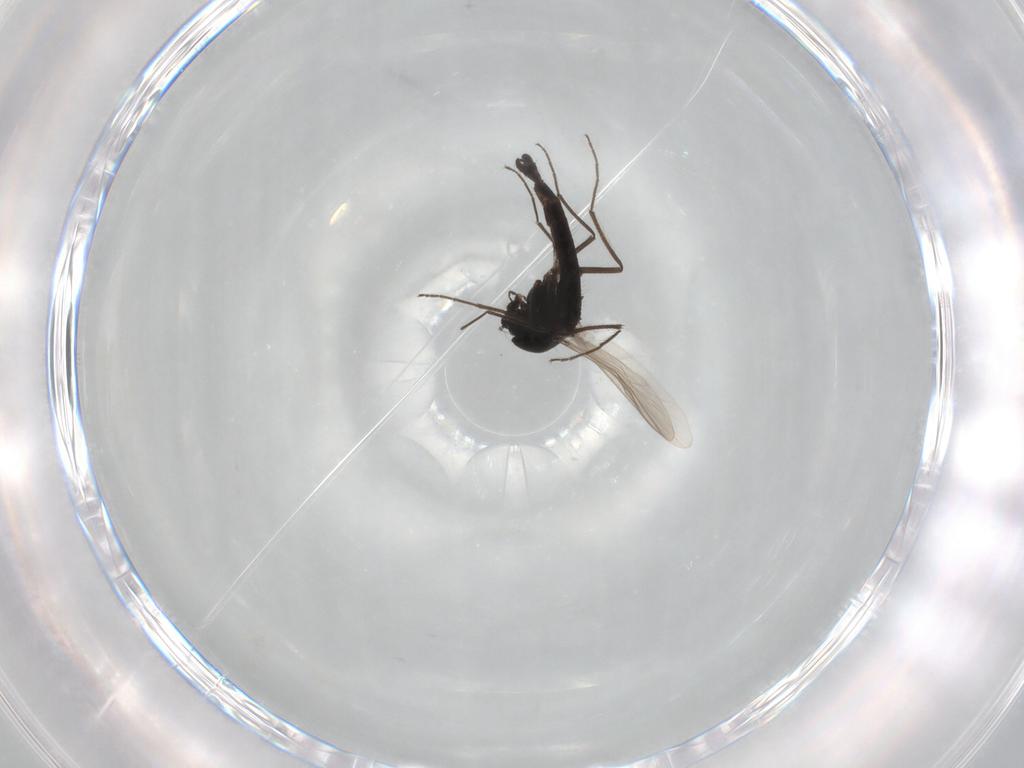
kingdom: Animalia
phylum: Arthropoda
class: Insecta
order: Diptera
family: Chironomidae
